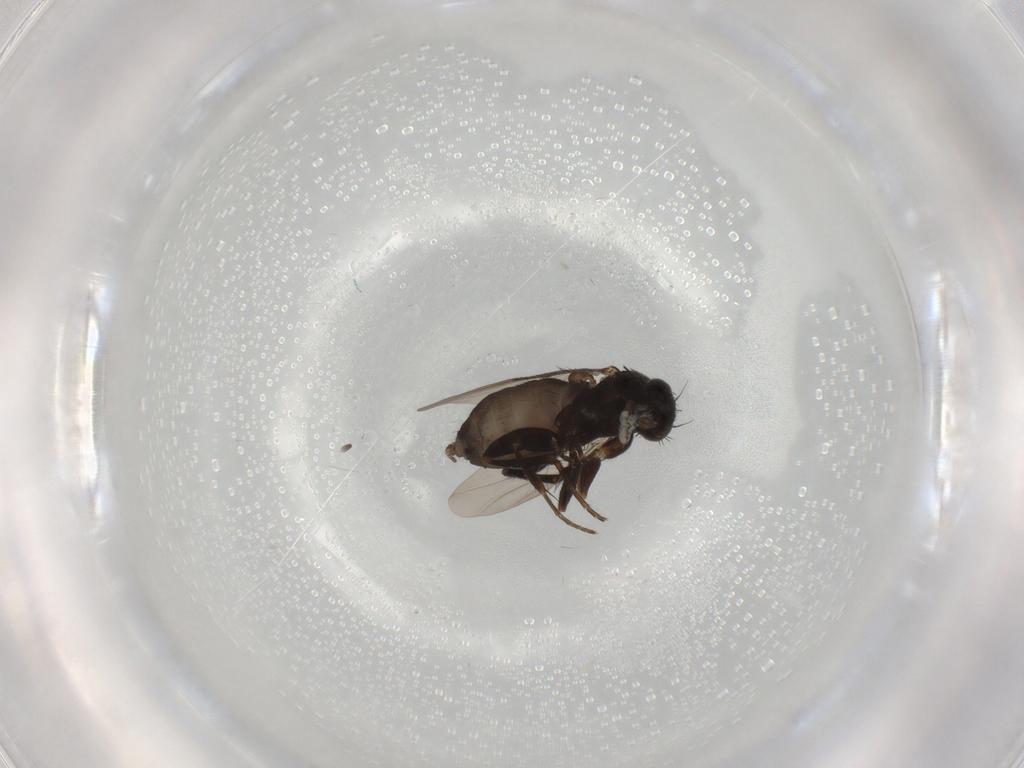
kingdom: Animalia
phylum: Arthropoda
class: Insecta
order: Diptera
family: Phoridae
